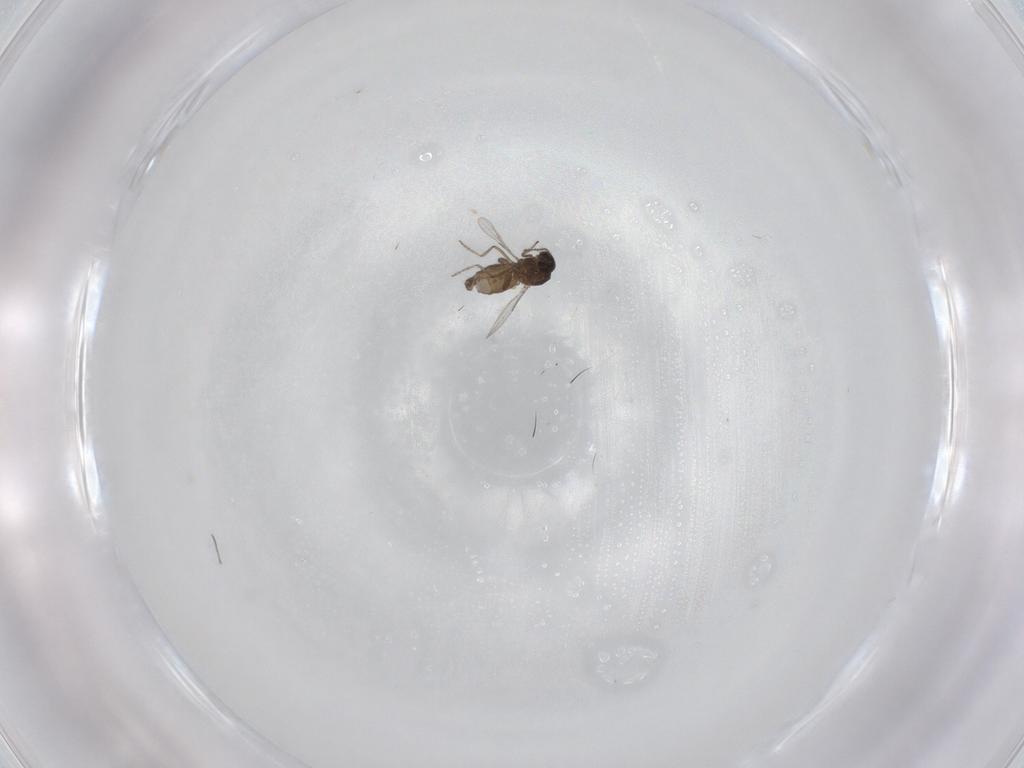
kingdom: Animalia
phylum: Arthropoda
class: Insecta
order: Diptera
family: Ceratopogonidae
